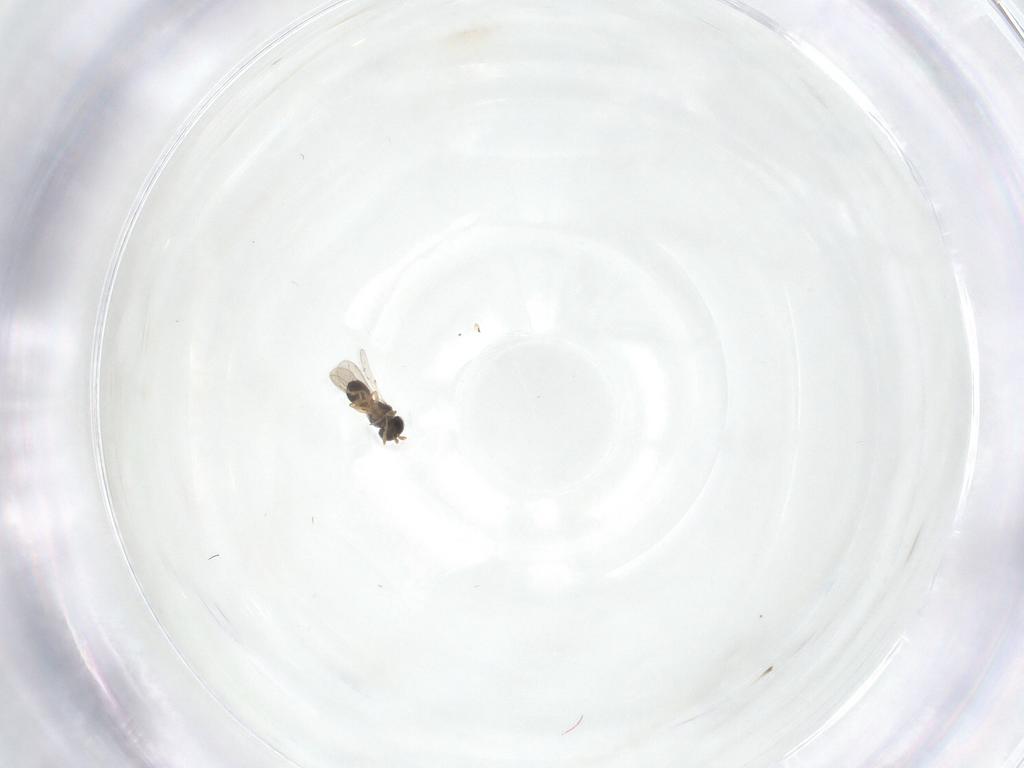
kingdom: Animalia
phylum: Arthropoda
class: Insecta
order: Hymenoptera
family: Scelionidae
